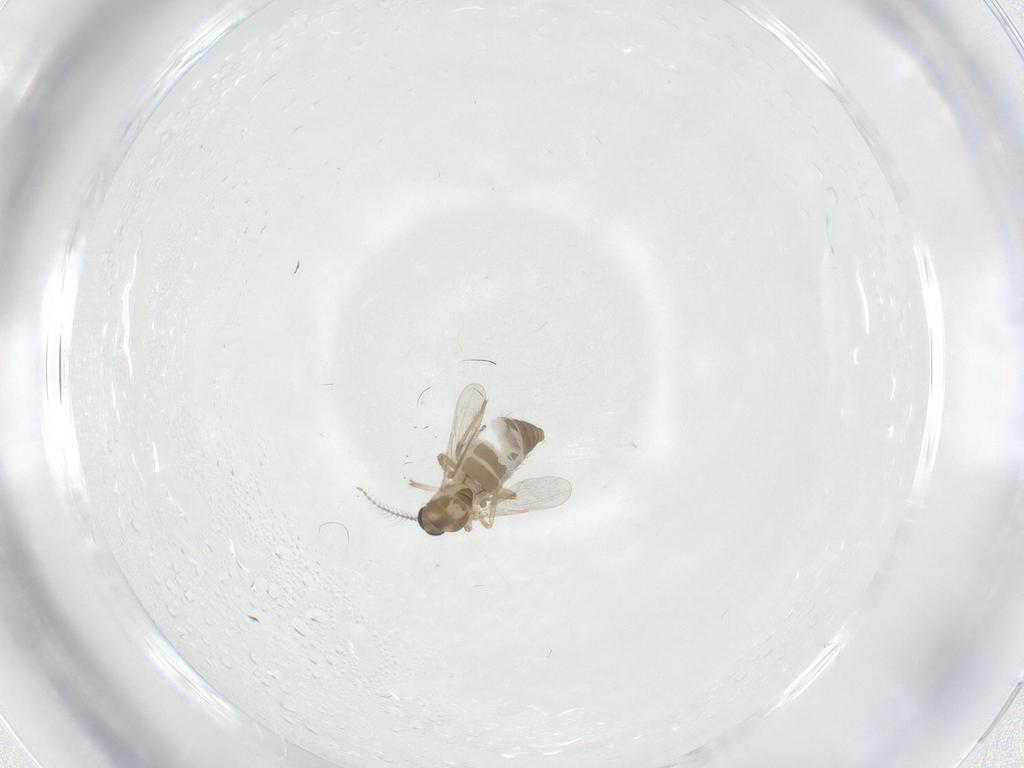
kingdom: Animalia
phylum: Arthropoda
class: Insecta
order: Diptera
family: Ceratopogonidae
